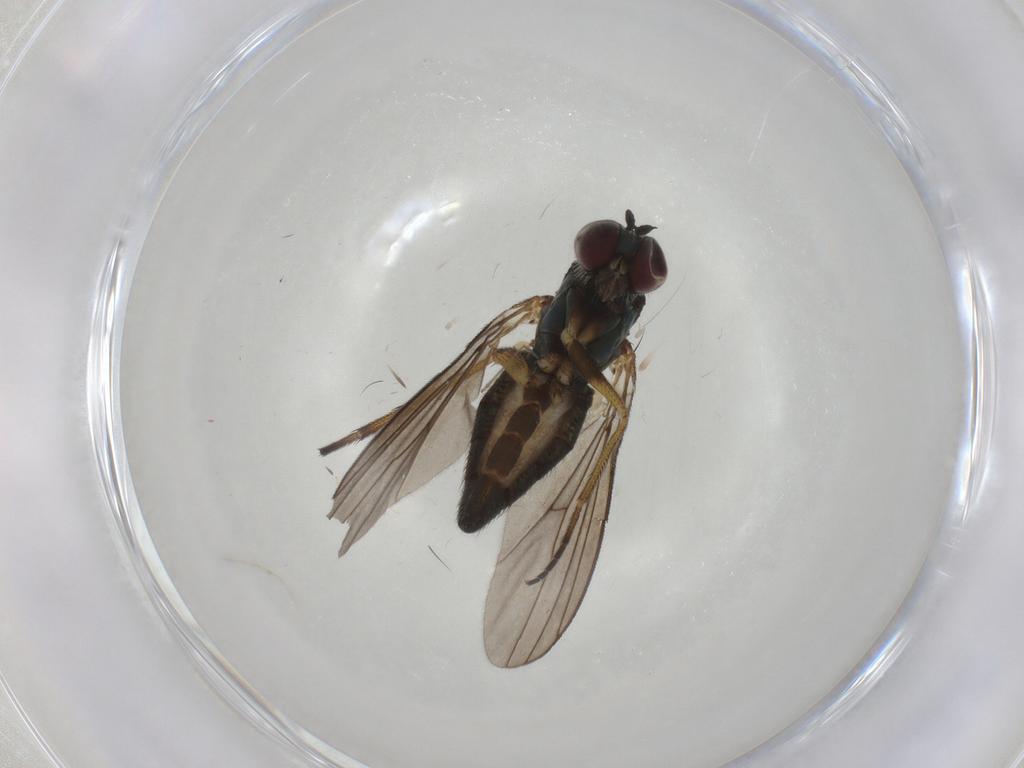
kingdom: Animalia
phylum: Arthropoda
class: Insecta
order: Diptera
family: Dolichopodidae
